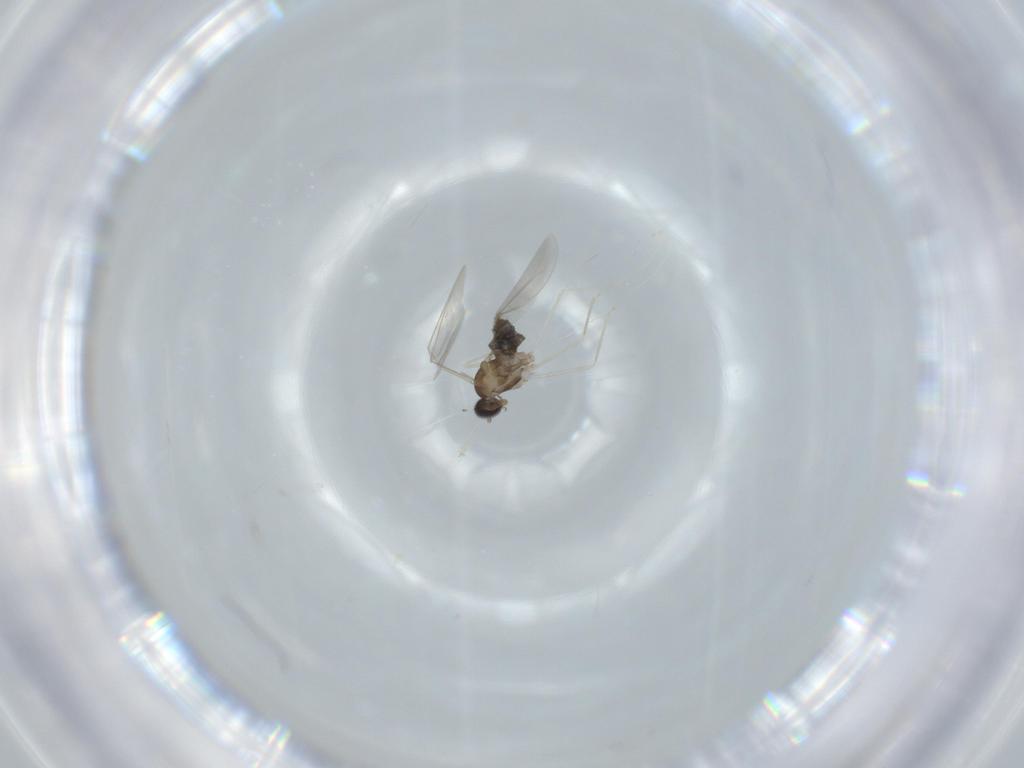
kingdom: Animalia
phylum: Arthropoda
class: Insecta
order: Diptera
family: Cecidomyiidae
